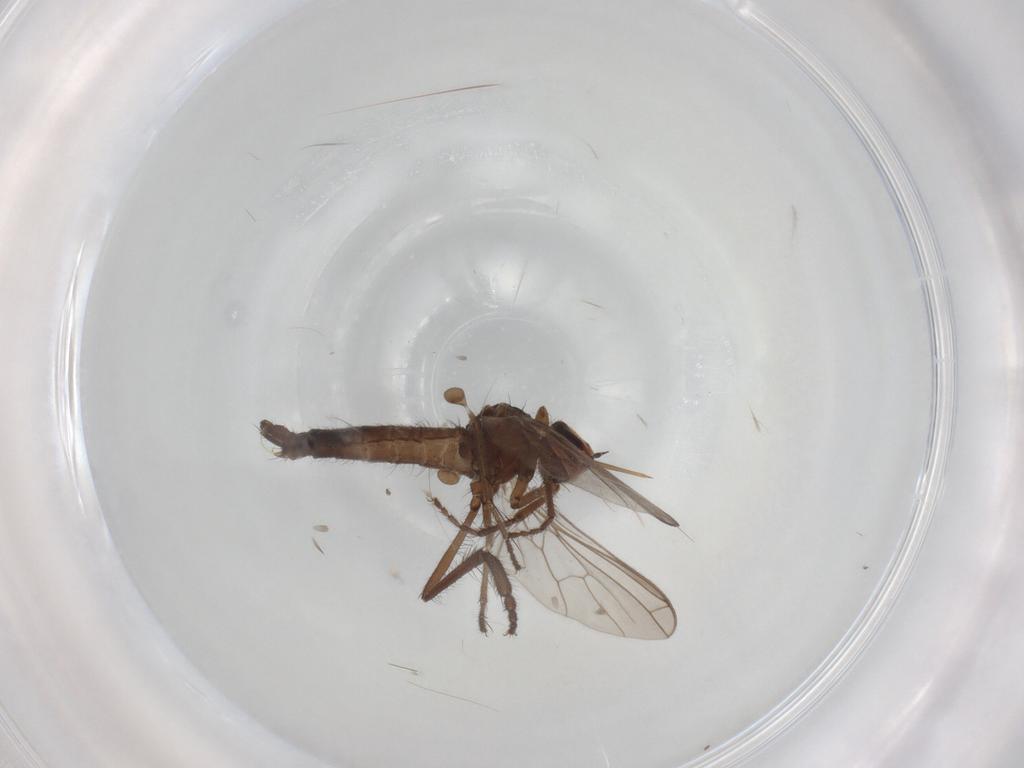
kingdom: Animalia
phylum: Arthropoda
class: Insecta
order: Diptera
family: Empididae
